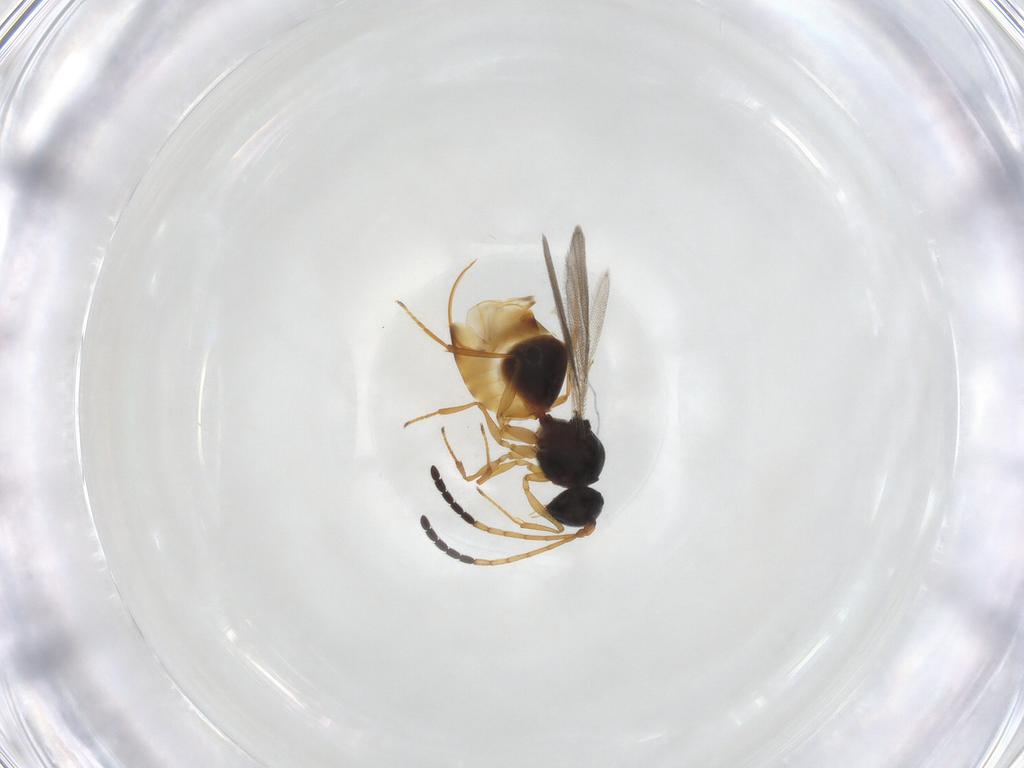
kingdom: Animalia
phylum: Arthropoda
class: Insecta
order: Hymenoptera
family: Figitidae
